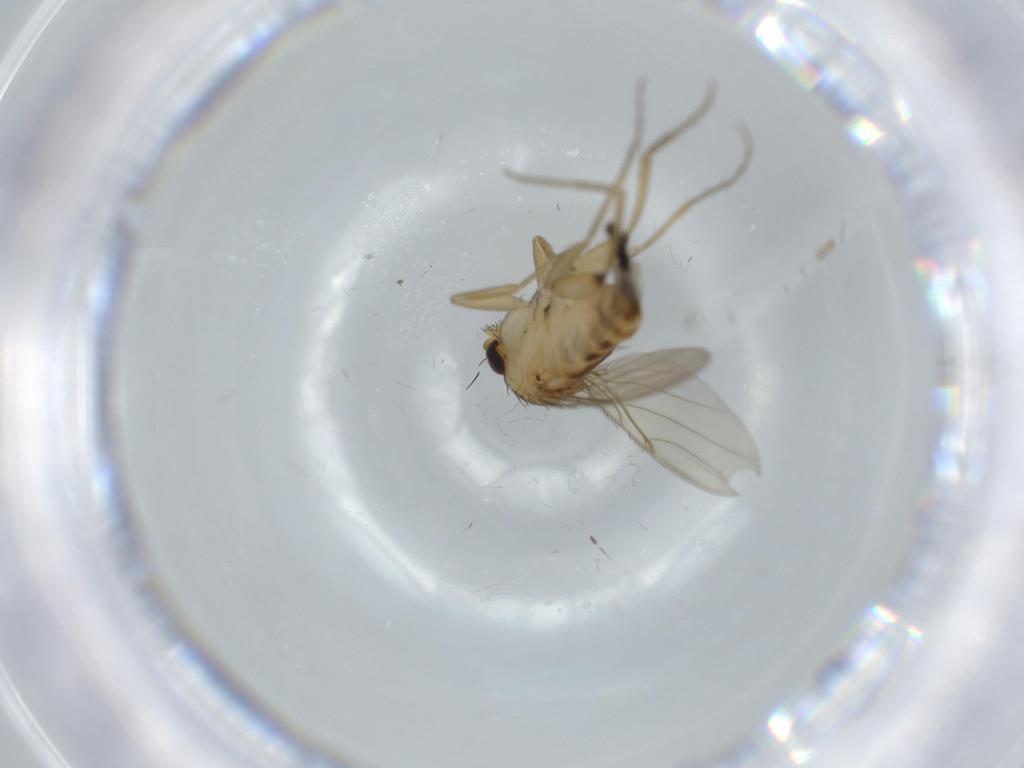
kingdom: Animalia
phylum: Arthropoda
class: Insecta
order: Diptera
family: Phoridae
